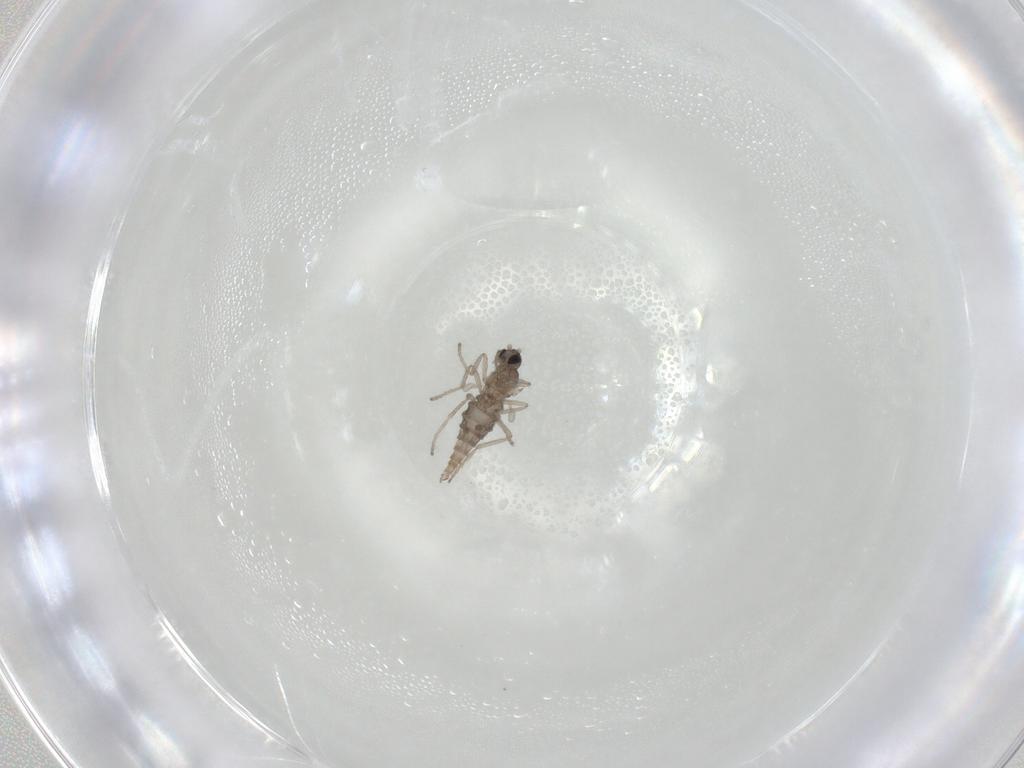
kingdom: Animalia
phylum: Arthropoda
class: Insecta
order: Diptera
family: Cecidomyiidae
